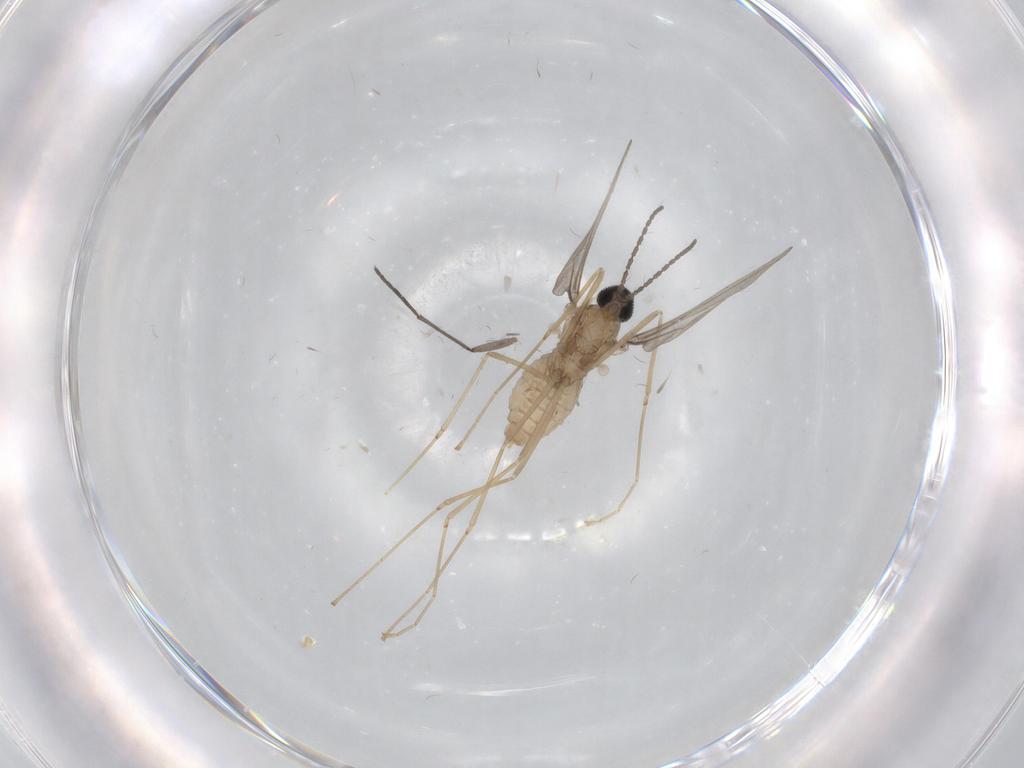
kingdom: Animalia
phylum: Arthropoda
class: Insecta
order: Diptera
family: Cecidomyiidae
